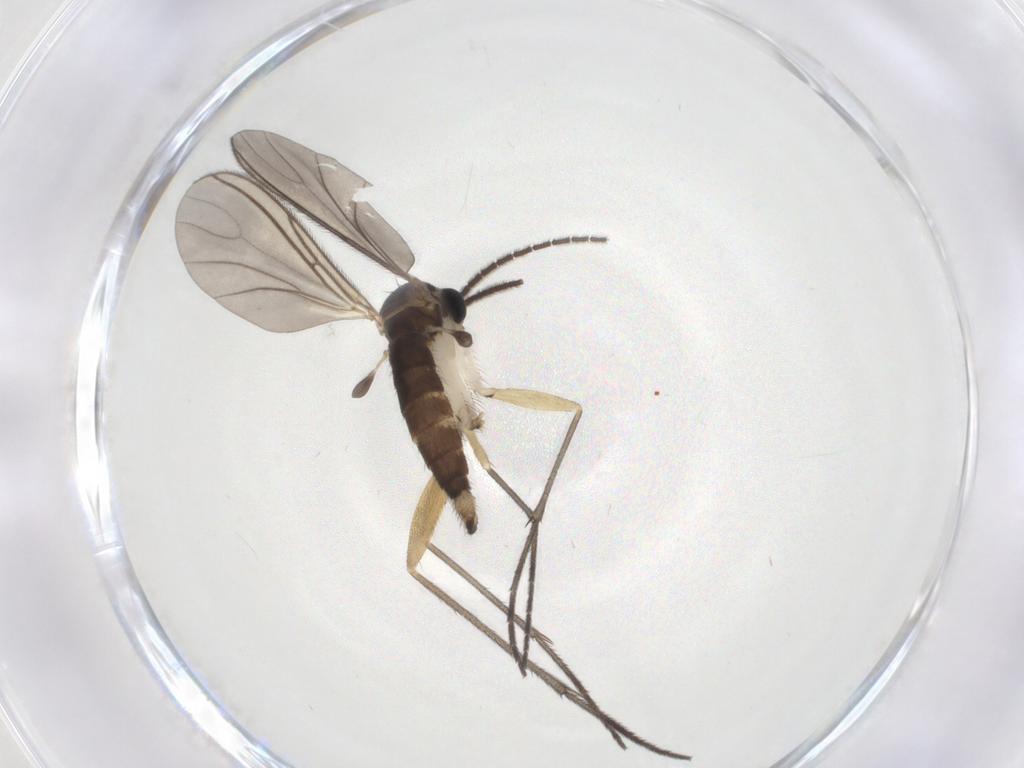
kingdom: Animalia
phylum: Arthropoda
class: Insecta
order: Diptera
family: Sciaridae
